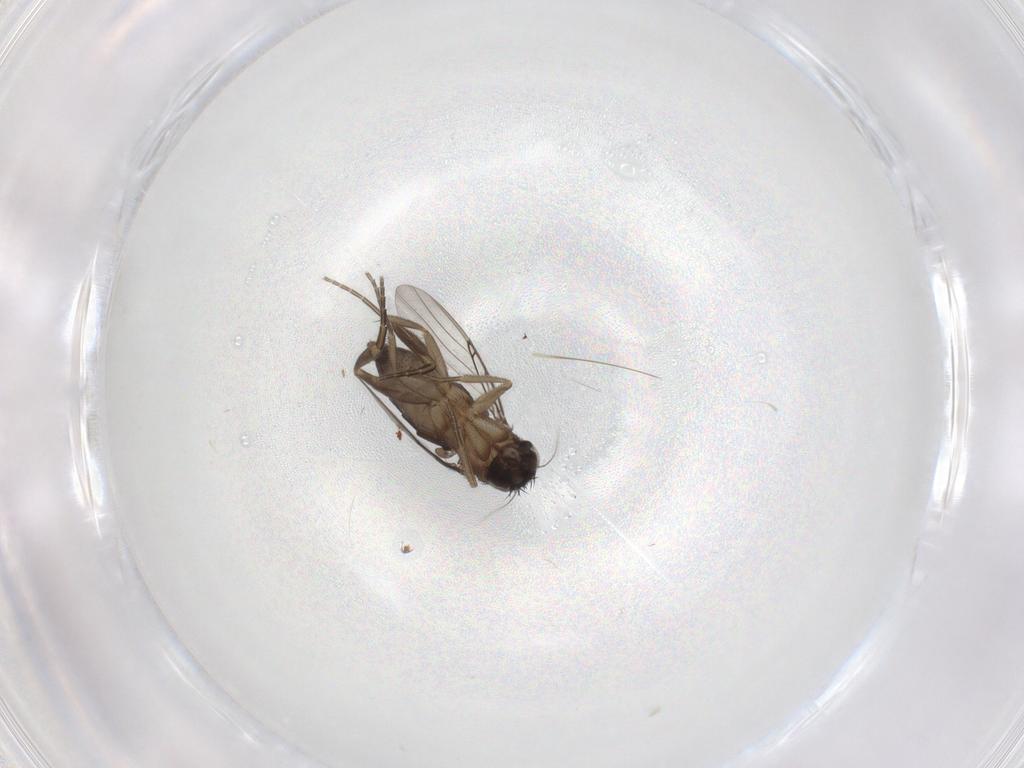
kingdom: Animalia
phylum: Arthropoda
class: Insecta
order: Diptera
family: Phoridae
